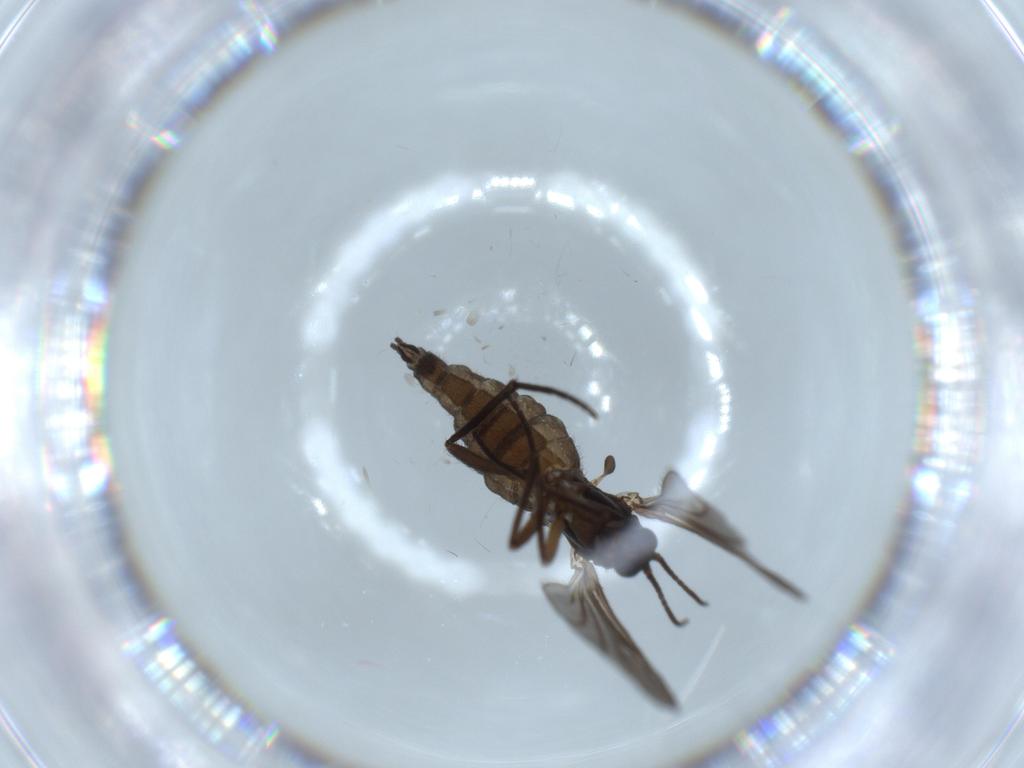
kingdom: Animalia
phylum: Arthropoda
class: Insecta
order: Diptera
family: Sciaridae
